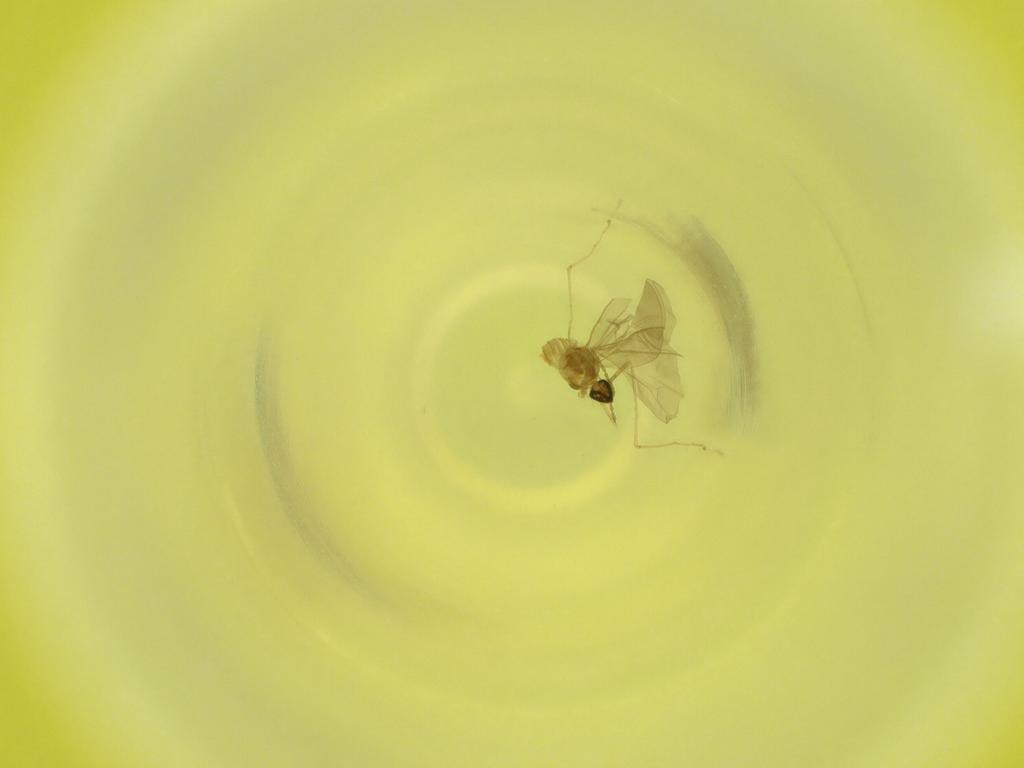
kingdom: Animalia
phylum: Arthropoda
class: Insecta
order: Diptera
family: Cecidomyiidae
